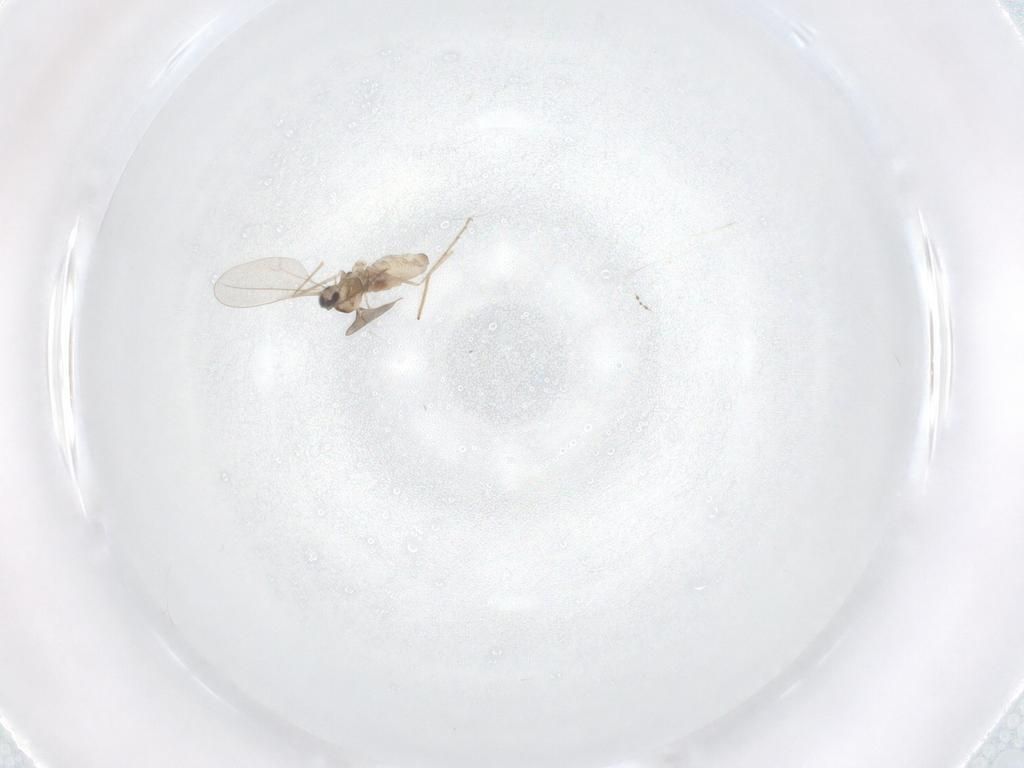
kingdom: Animalia
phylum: Arthropoda
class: Insecta
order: Diptera
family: Cecidomyiidae
